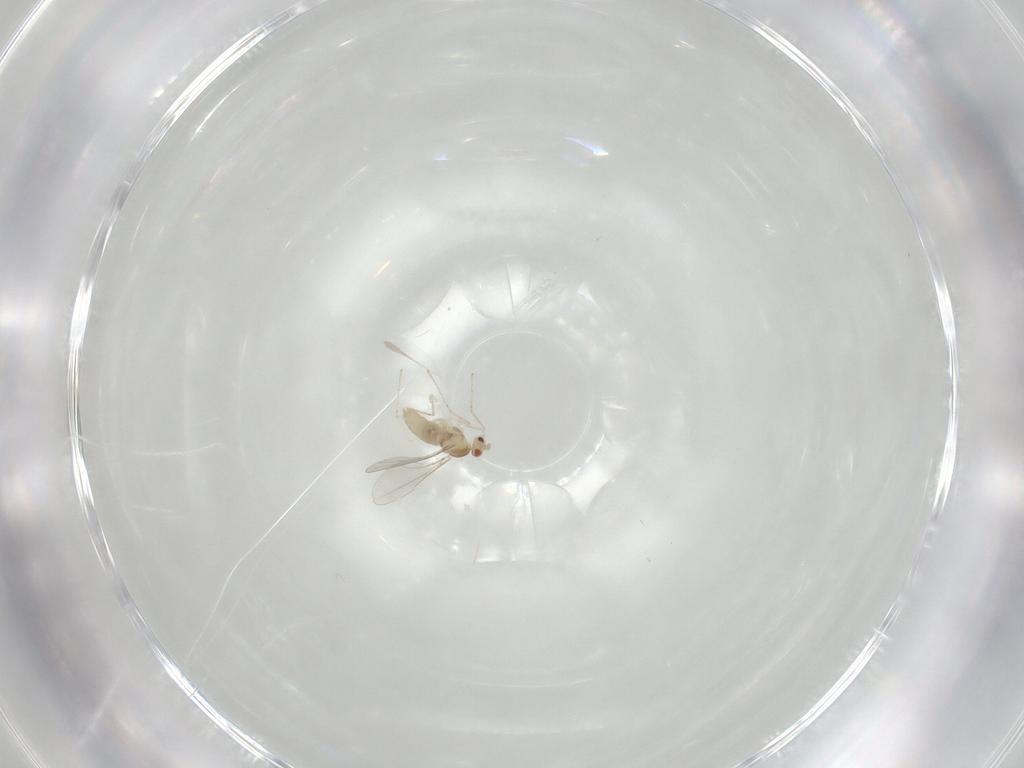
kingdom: Animalia
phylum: Arthropoda
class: Insecta
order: Diptera
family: Cecidomyiidae
